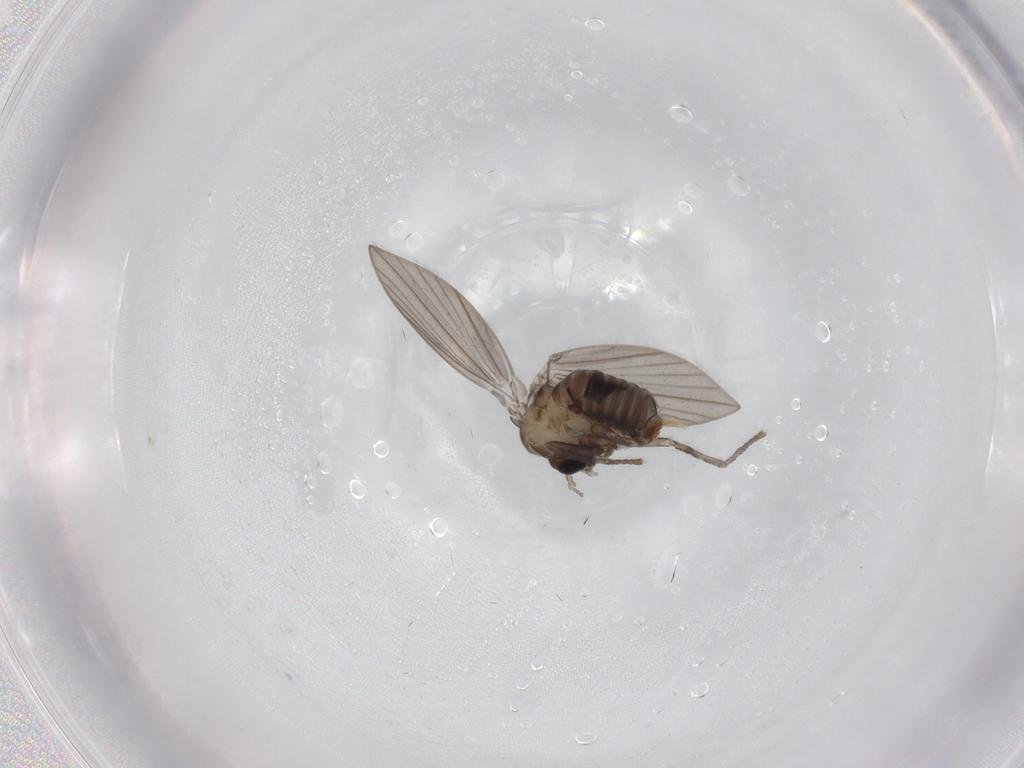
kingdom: Animalia
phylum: Arthropoda
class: Insecta
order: Diptera
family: Psychodidae
